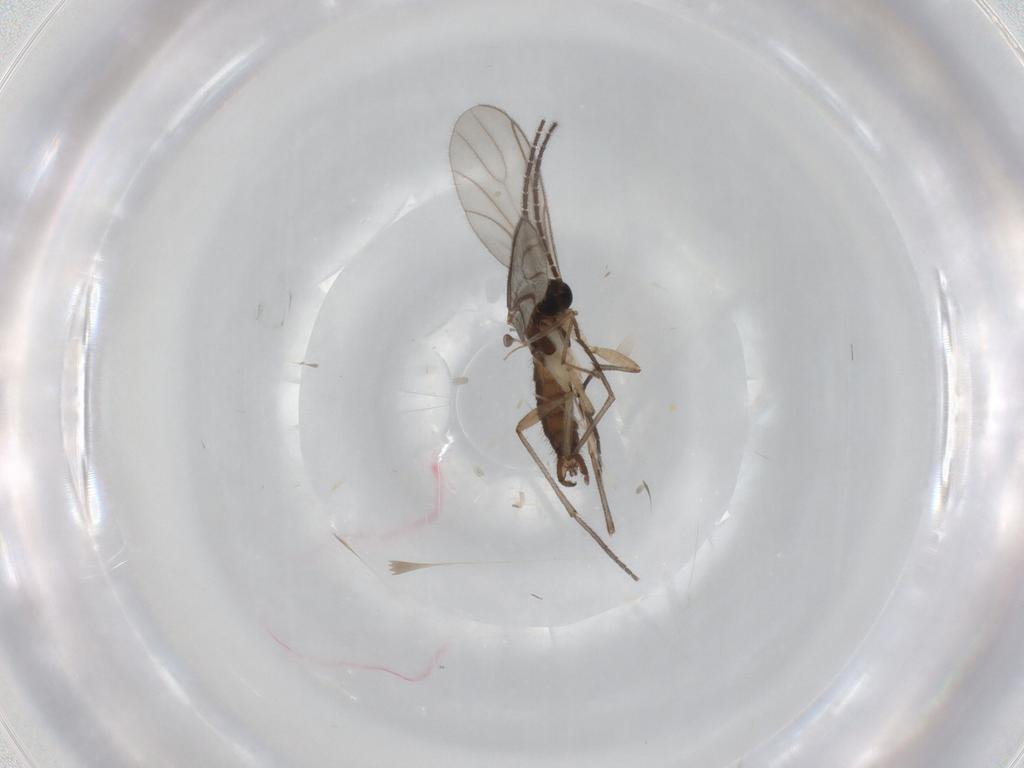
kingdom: Animalia
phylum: Arthropoda
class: Insecta
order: Diptera
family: Chironomidae
